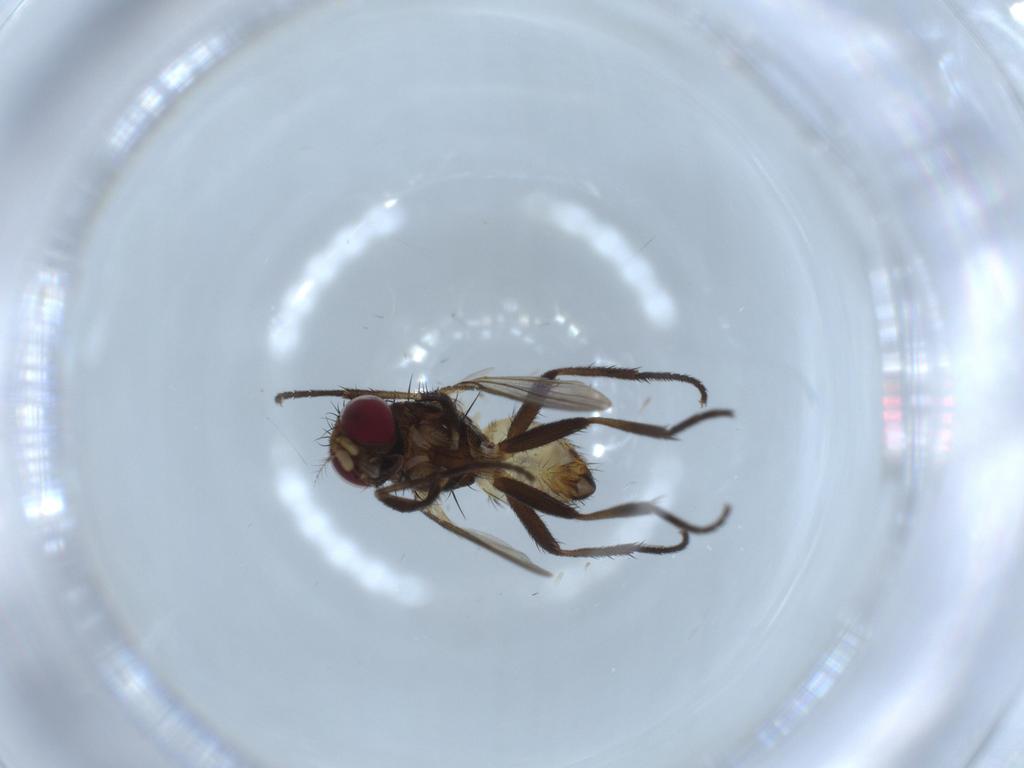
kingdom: Animalia
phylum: Arthropoda
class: Insecta
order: Diptera
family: Anthomyiidae
